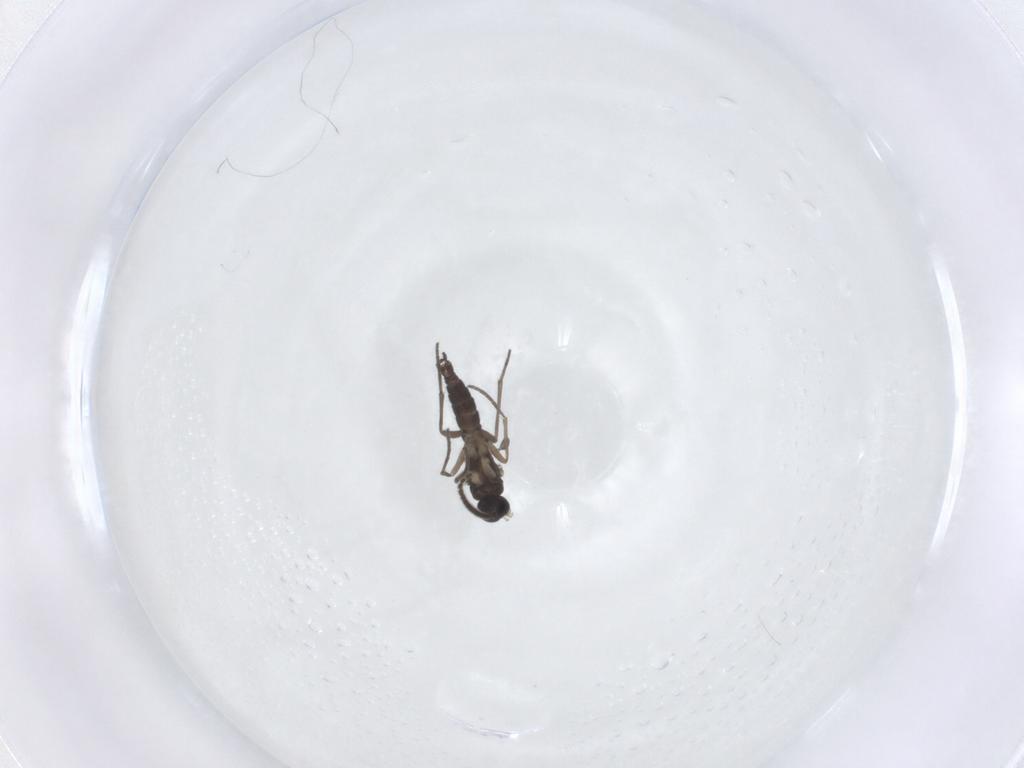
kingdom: Animalia
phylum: Arthropoda
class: Insecta
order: Diptera
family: Sciaridae
